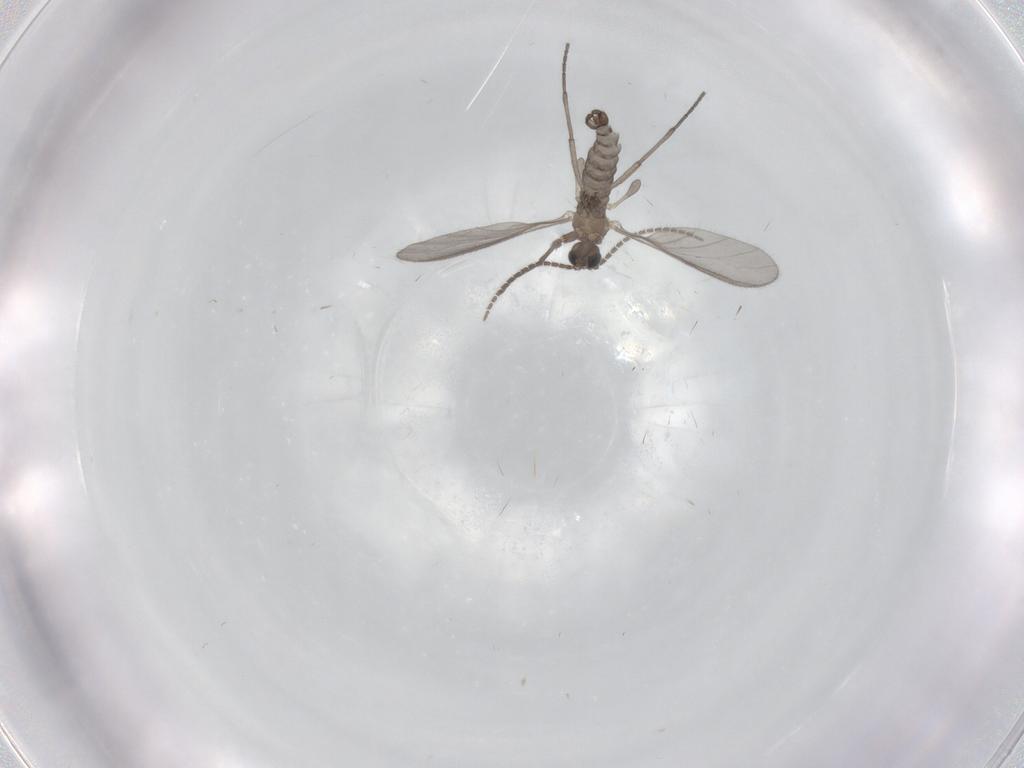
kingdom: Animalia
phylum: Arthropoda
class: Insecta
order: Diptera
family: Sciaridae
